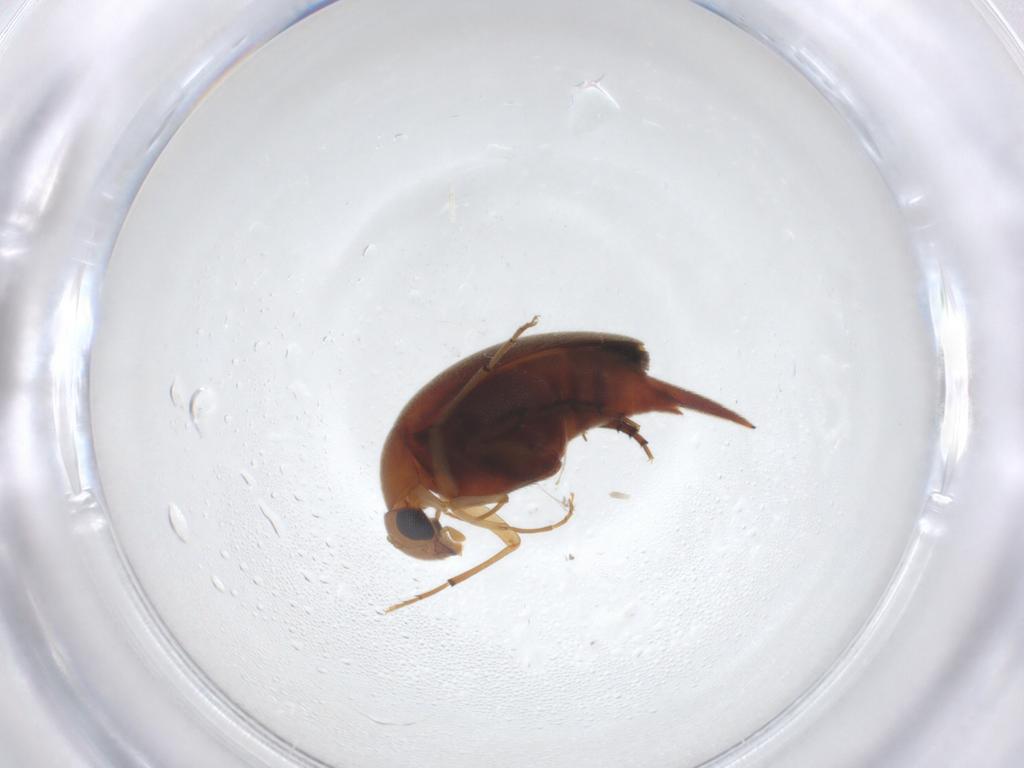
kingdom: Animalia
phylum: Arthropoda
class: Insecta
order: Coleoptera
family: Mordellidae
